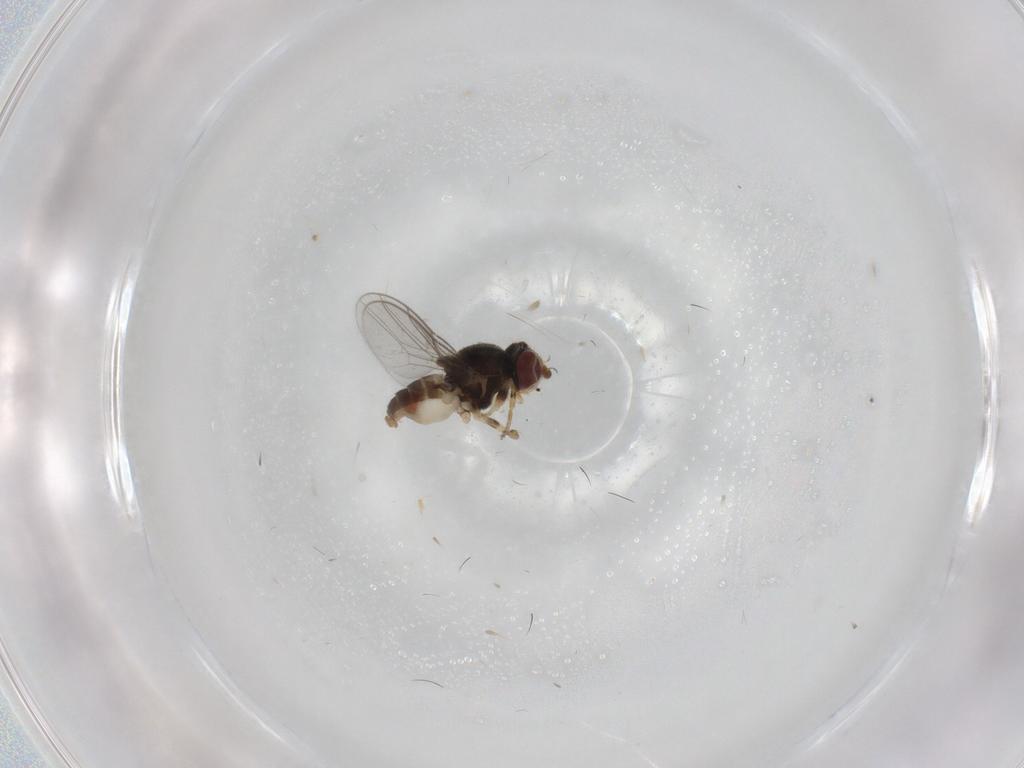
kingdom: Animalia
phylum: Arthropoda
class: Insecta
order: Diptera
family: Chloropidae
